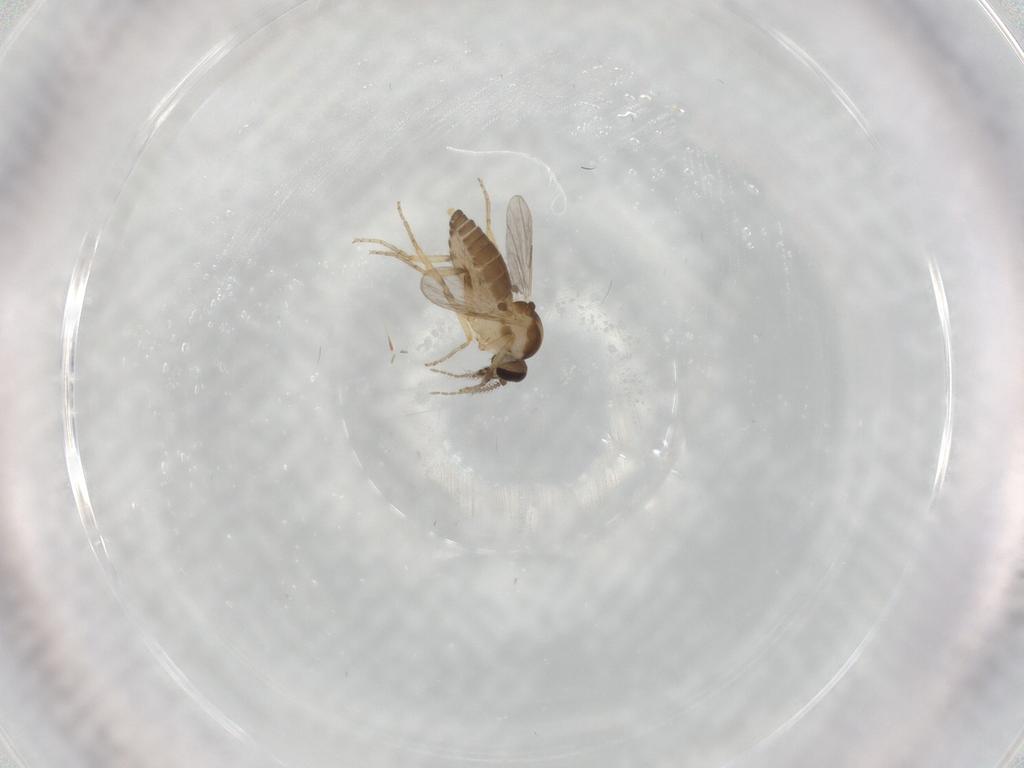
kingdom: Animalia
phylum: Arthropoda
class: Insecta
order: Diptera
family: Ceratopogonidae
